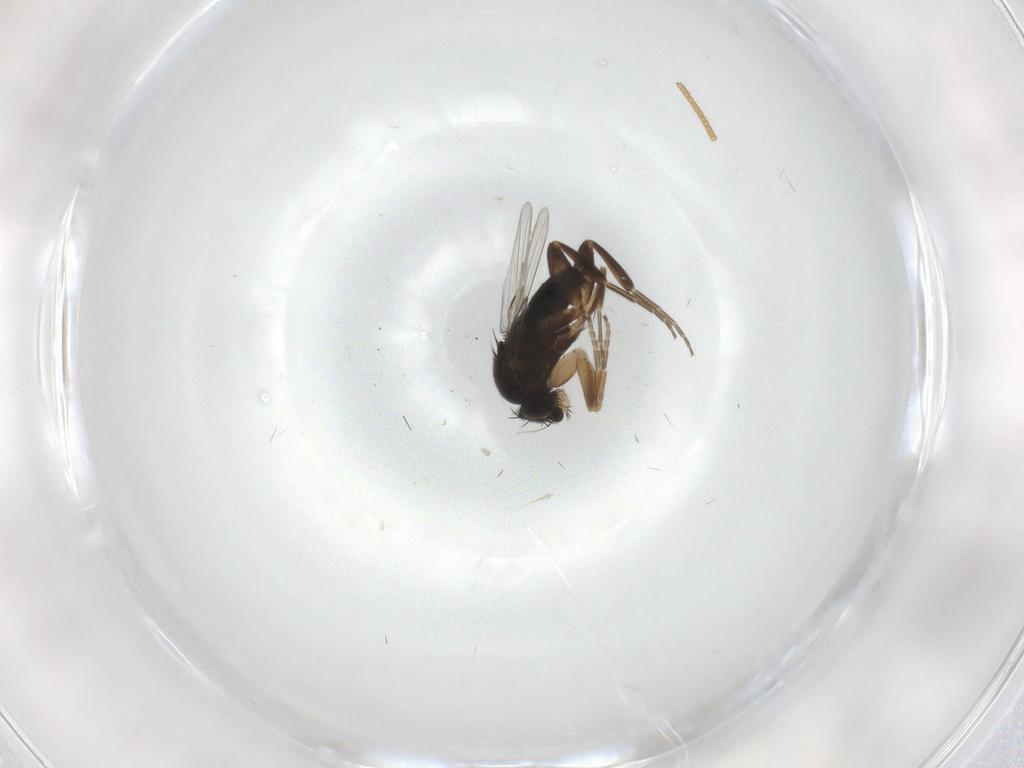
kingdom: Animalia
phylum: Arthropoda
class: Insecta
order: Diptera
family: Phoridae
